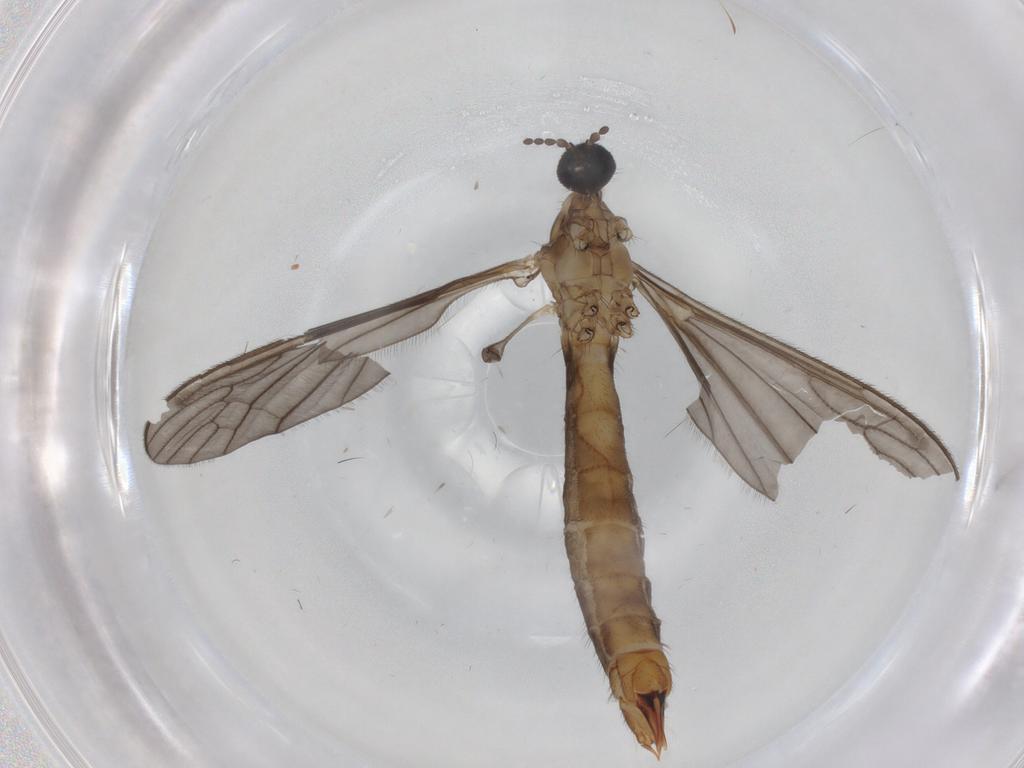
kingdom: Animalia
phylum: Arthropoda
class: Insecta
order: Diptera
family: Limoniidae
